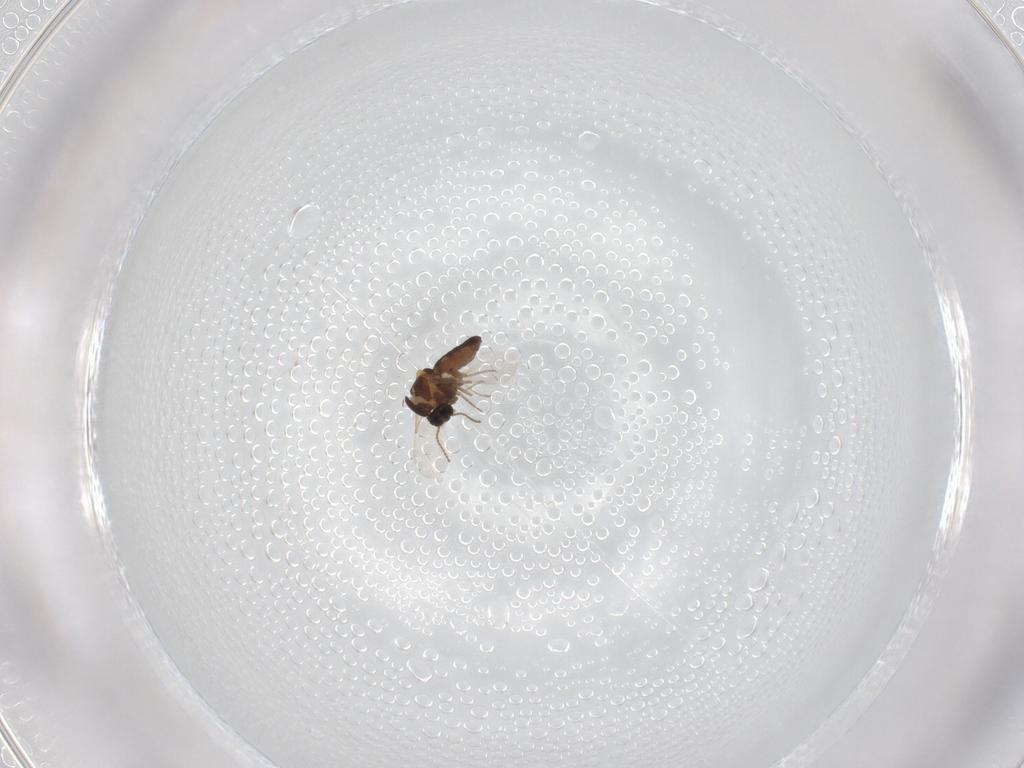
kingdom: Animalia
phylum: Arthropoda
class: Insecta
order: Diptera
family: Ceratopogonidae
